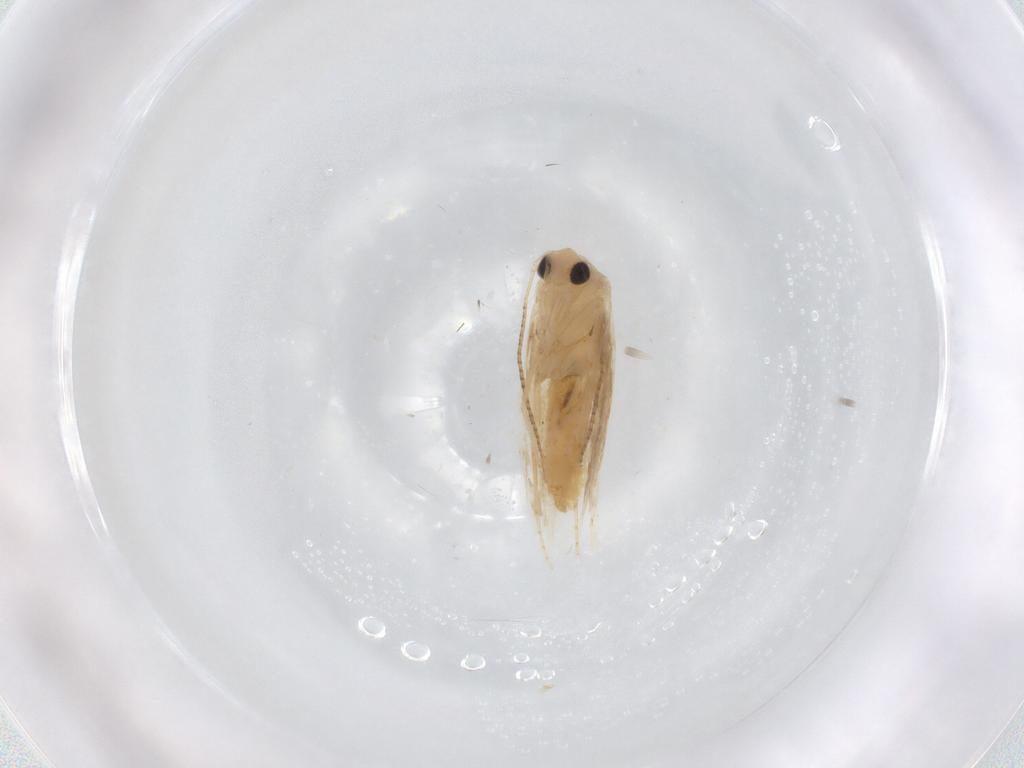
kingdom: Animalia
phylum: Arthropoda
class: Insecta
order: Lepidoptera
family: Nepticulidae
